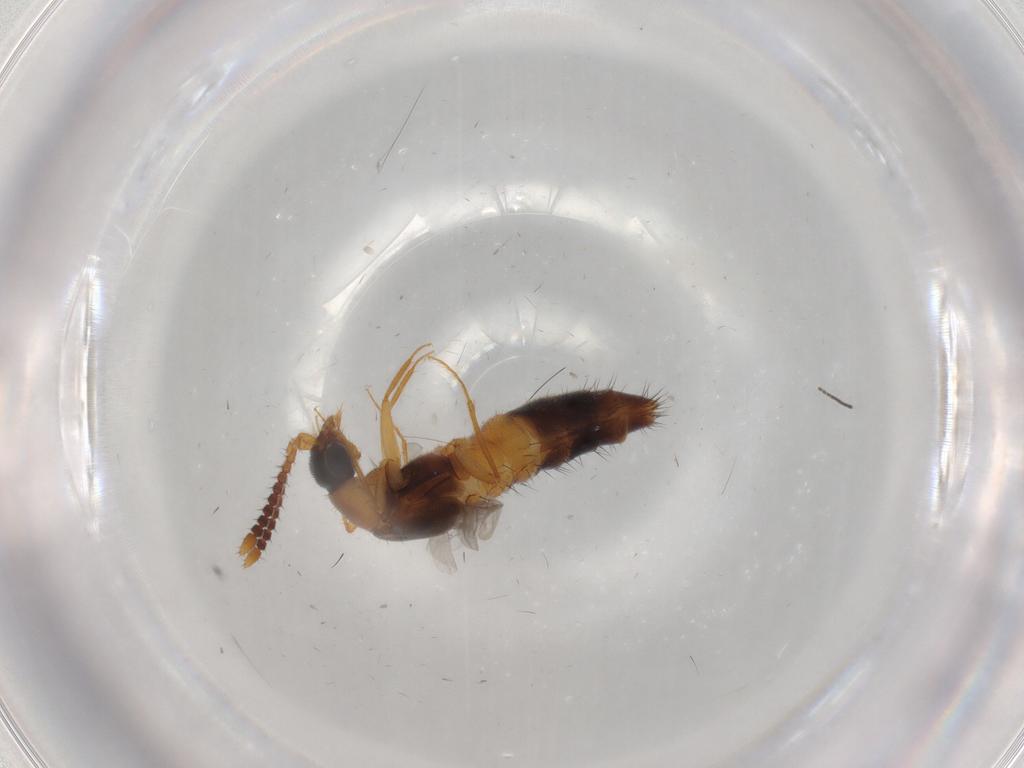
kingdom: Animalia
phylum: Arthropoda
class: Insecta
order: Coleoptera
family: Staphylinidae
